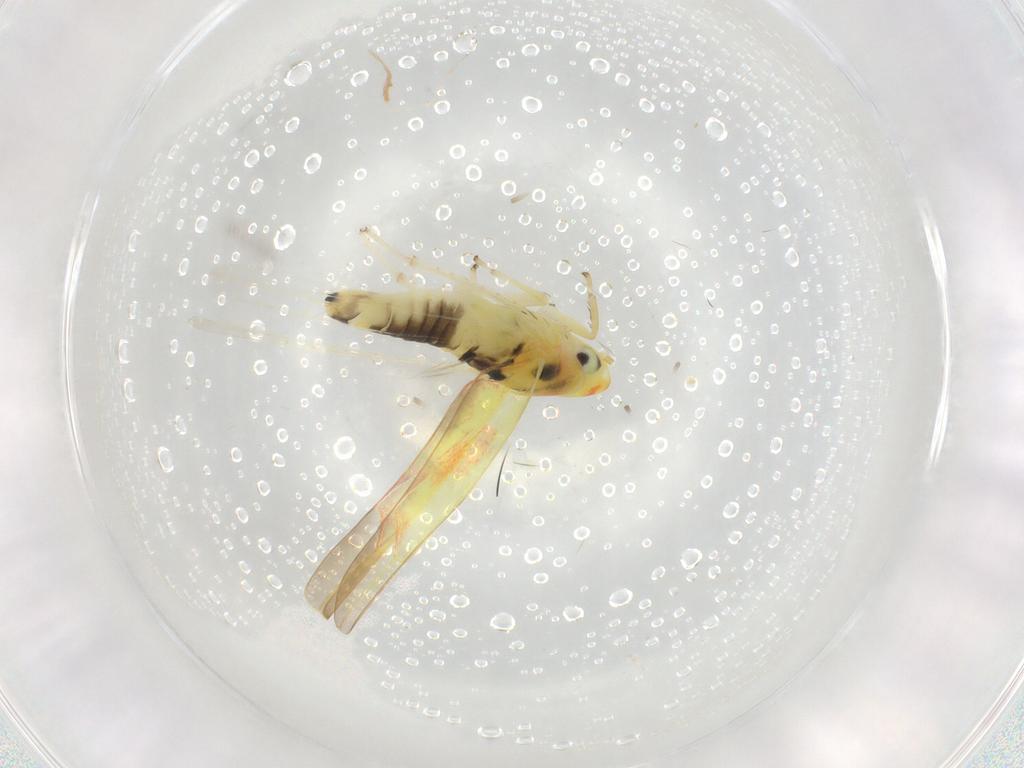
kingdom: Animalia
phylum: Arthropoda
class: Insecta
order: Hemiptera
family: Cicadellidae
